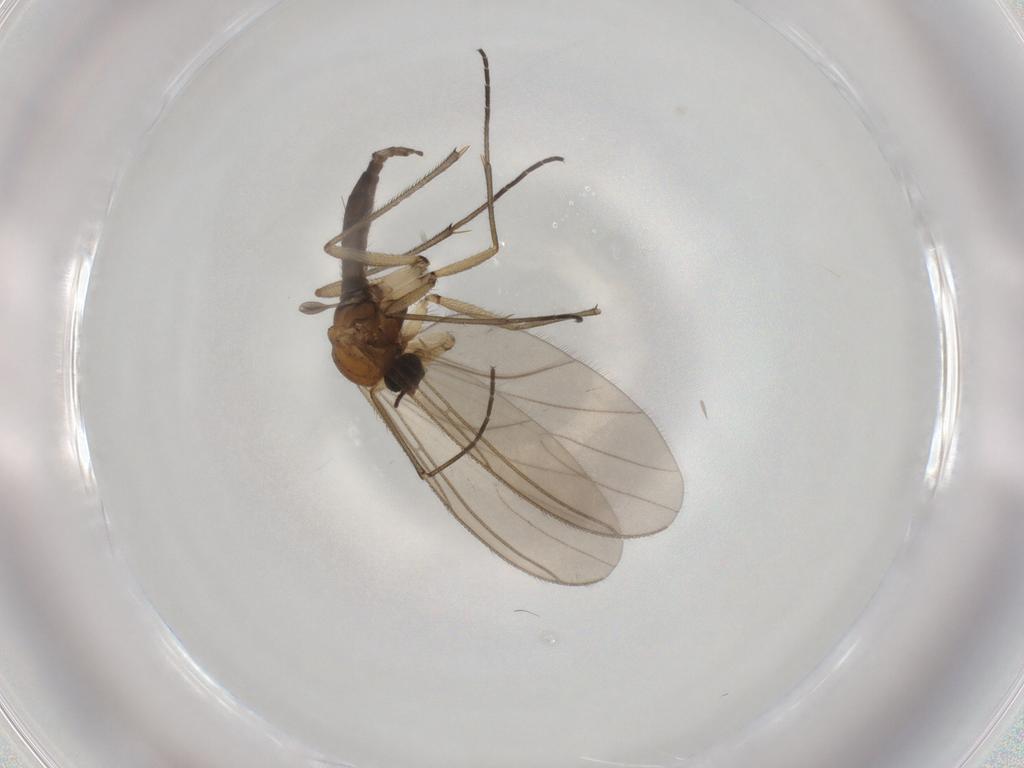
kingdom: Animalia
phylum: Arthropoda
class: Insecta
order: Diptera
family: Sciaridae
